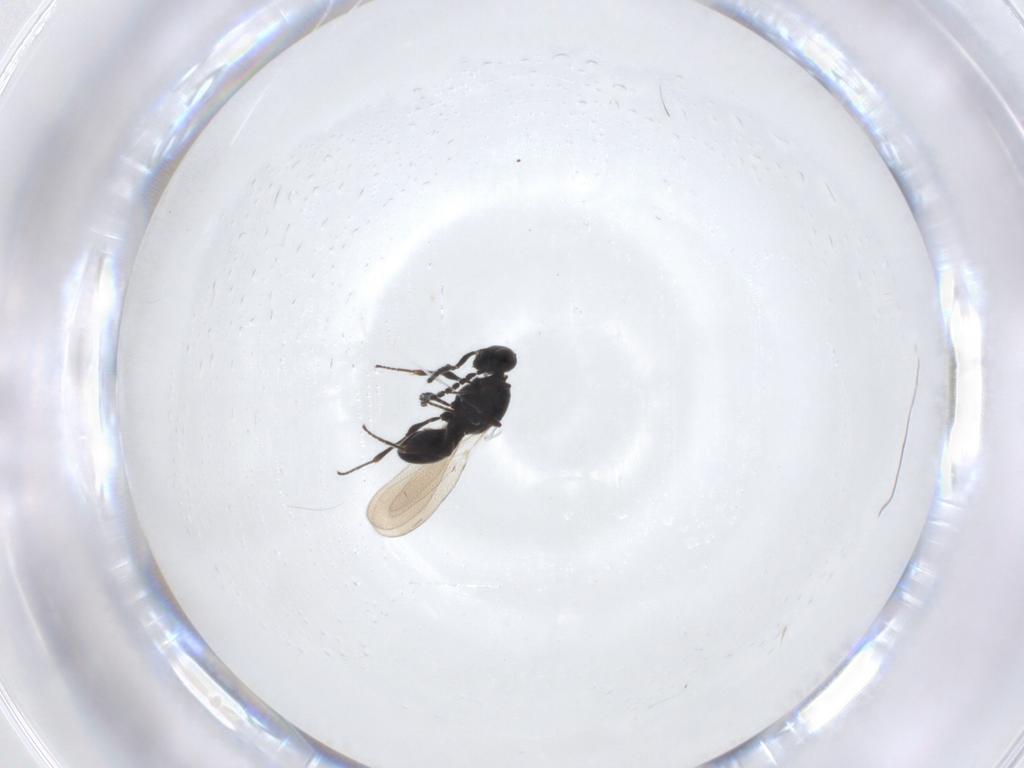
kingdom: Animalia
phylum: Arthropoda
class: Insecta
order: Hymenoptera
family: Platygastridae
